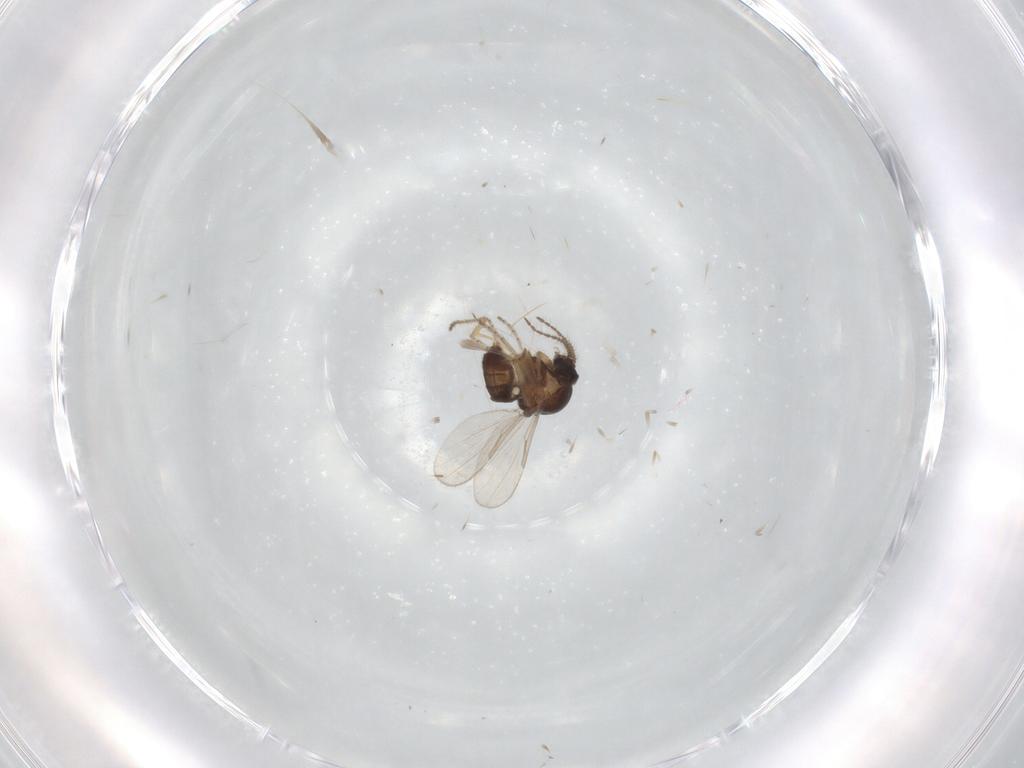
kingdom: Animalia
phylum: Arthropoda
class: Insecta
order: Diptera
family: Ceratopogonidae
